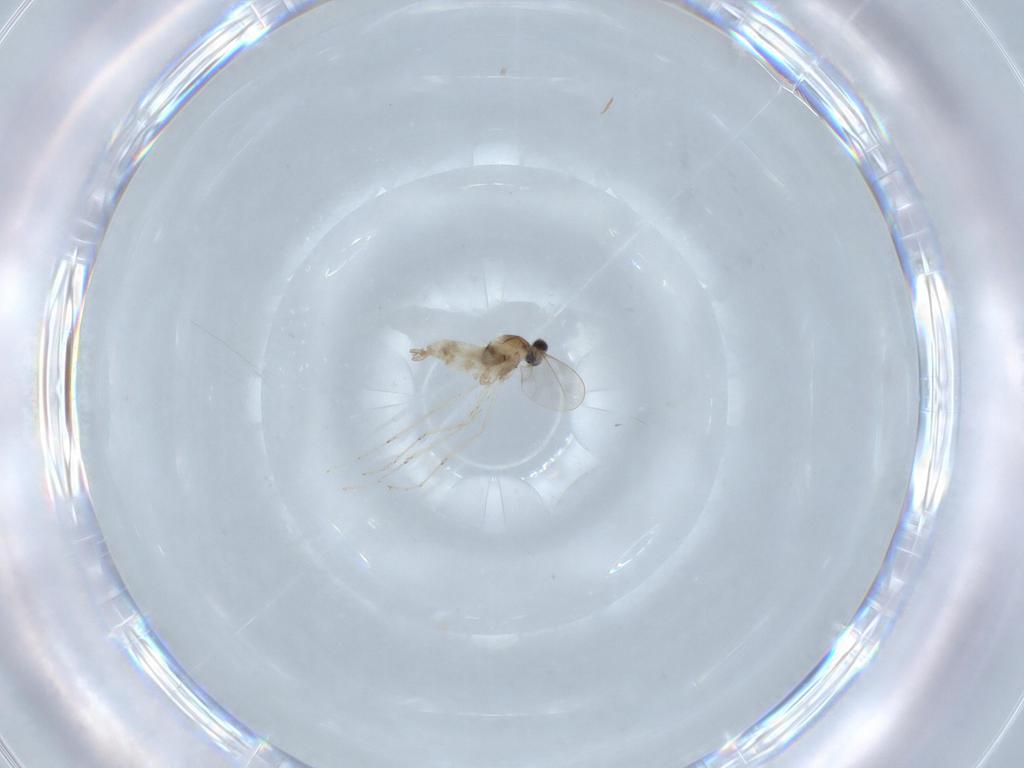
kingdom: Animalia
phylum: Arthropoda
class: Insecta
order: Diptera
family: Cecidomyiidae
